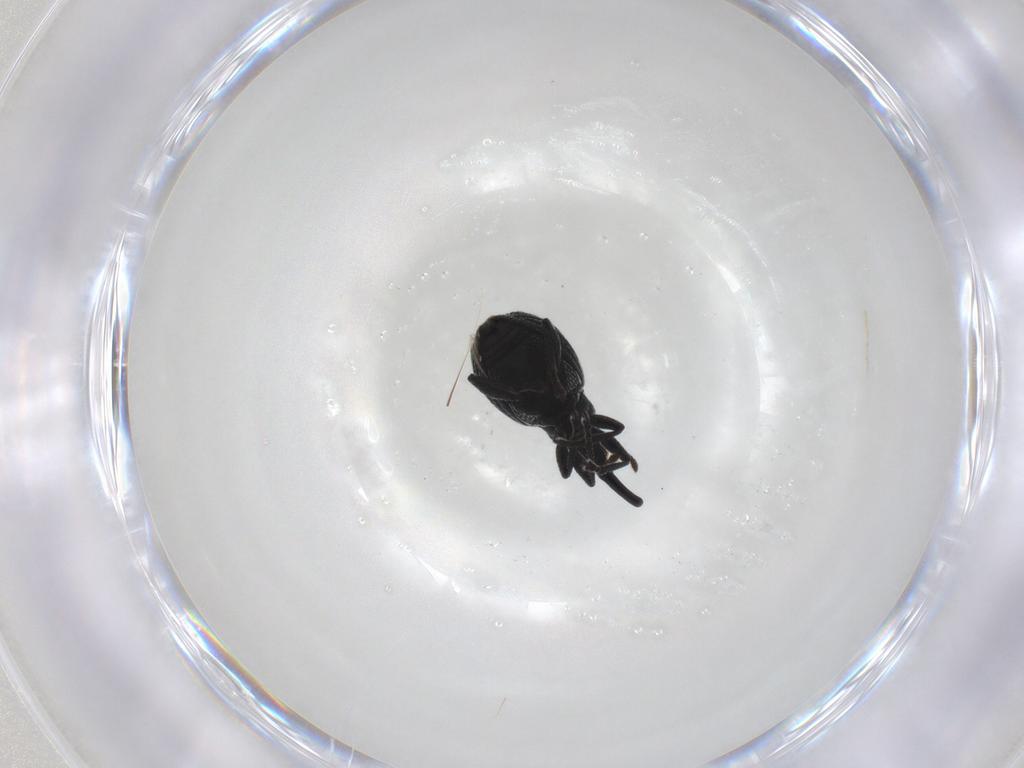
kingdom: Animalia
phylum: Arthropoda
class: Insecta
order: Coleoptera
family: Brentidae
